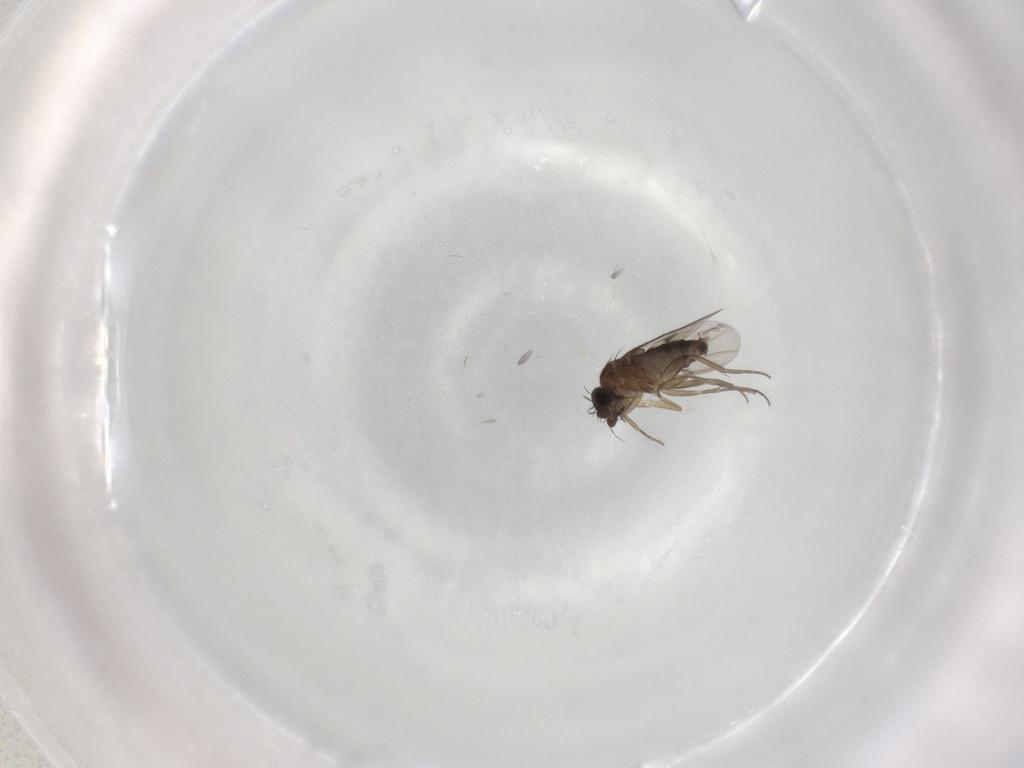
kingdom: Animalia
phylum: Arthropoda
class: Insecta
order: Diptera
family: Phoridae
